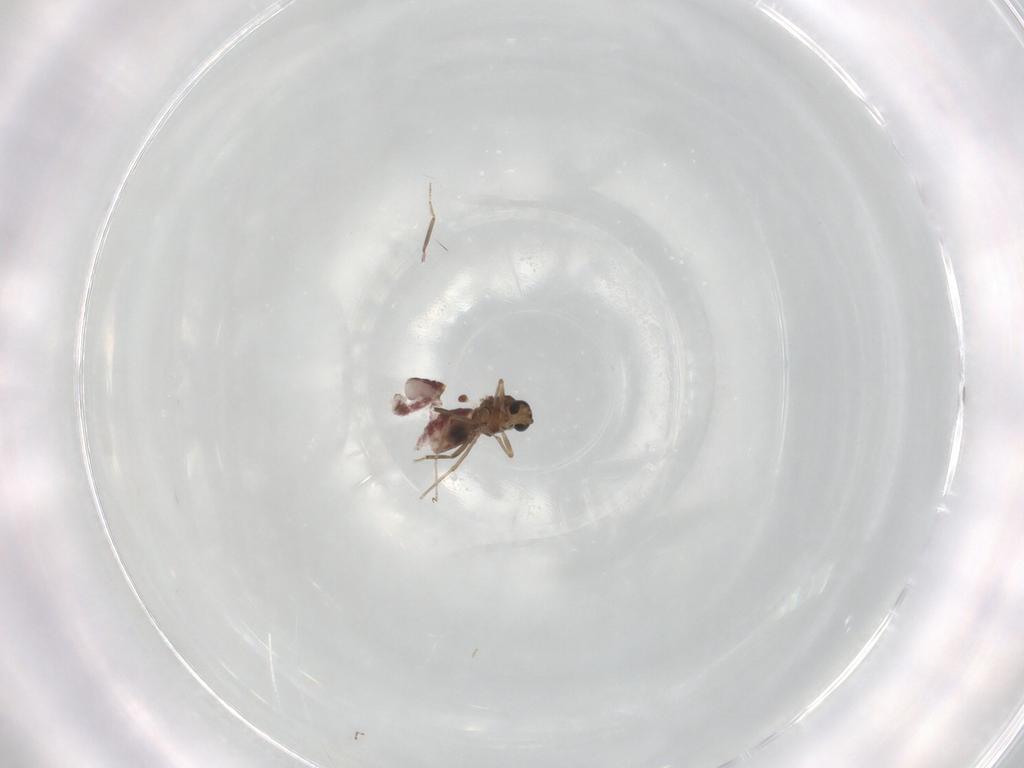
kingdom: Animalia
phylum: Arthropoda
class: Insecta
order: Diptera
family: Ceratopogonidae
